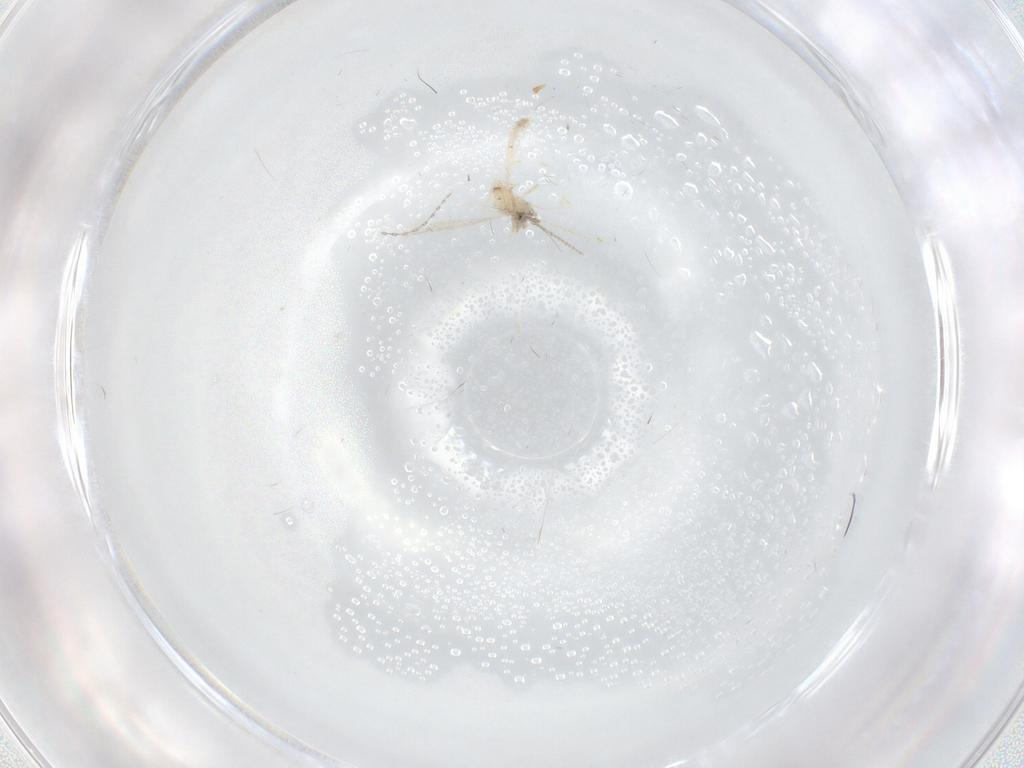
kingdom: Animalia
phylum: Arthropoda
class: Insecta
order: Diptera
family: Cecidomyiidae
